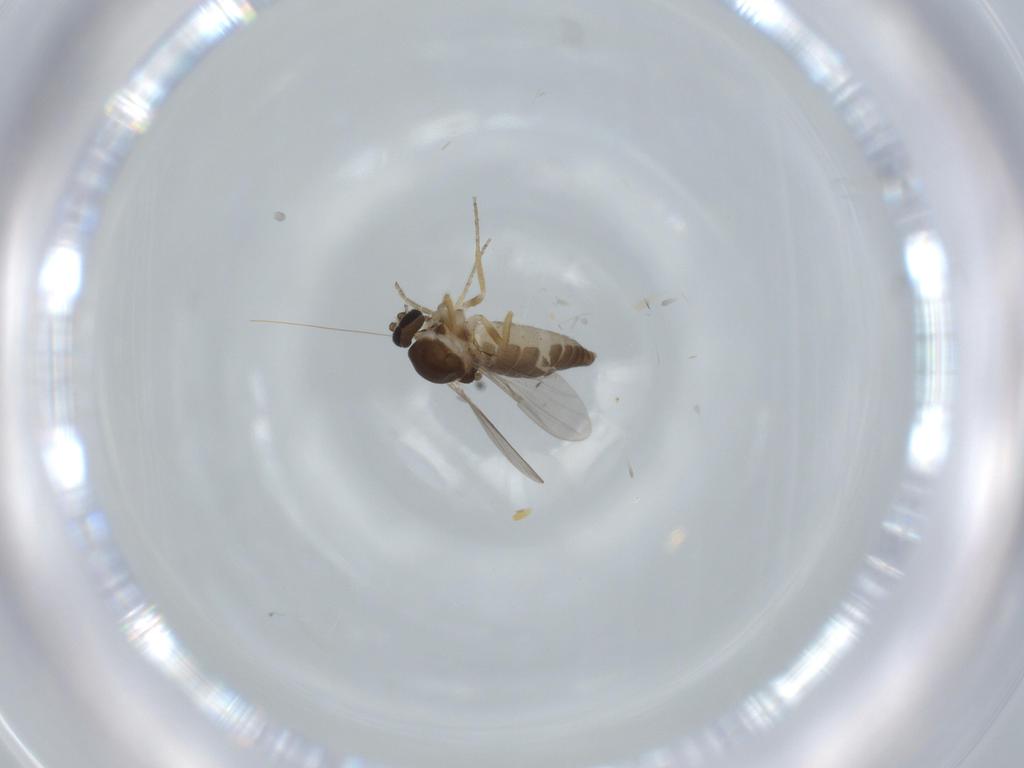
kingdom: Animalia
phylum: Arthropoda
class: Insecta
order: Diptera
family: Ceratopogonidae
